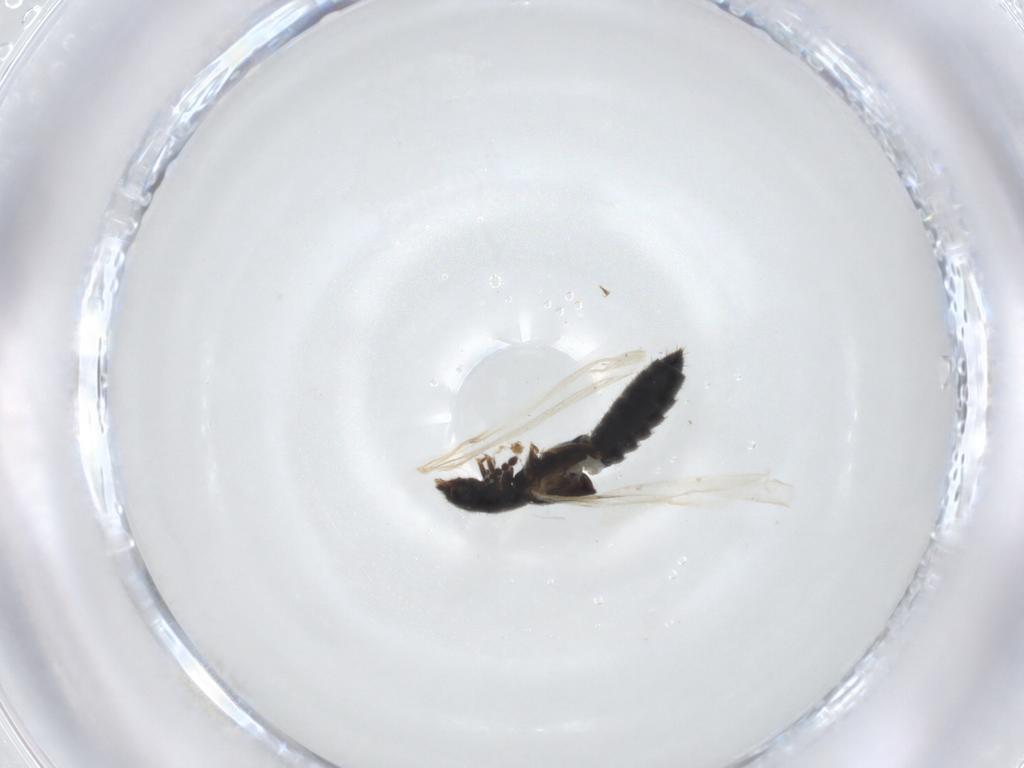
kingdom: Animalia
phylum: Arthropoda
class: Insecta
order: Coleoptera
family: Staphylinidae
